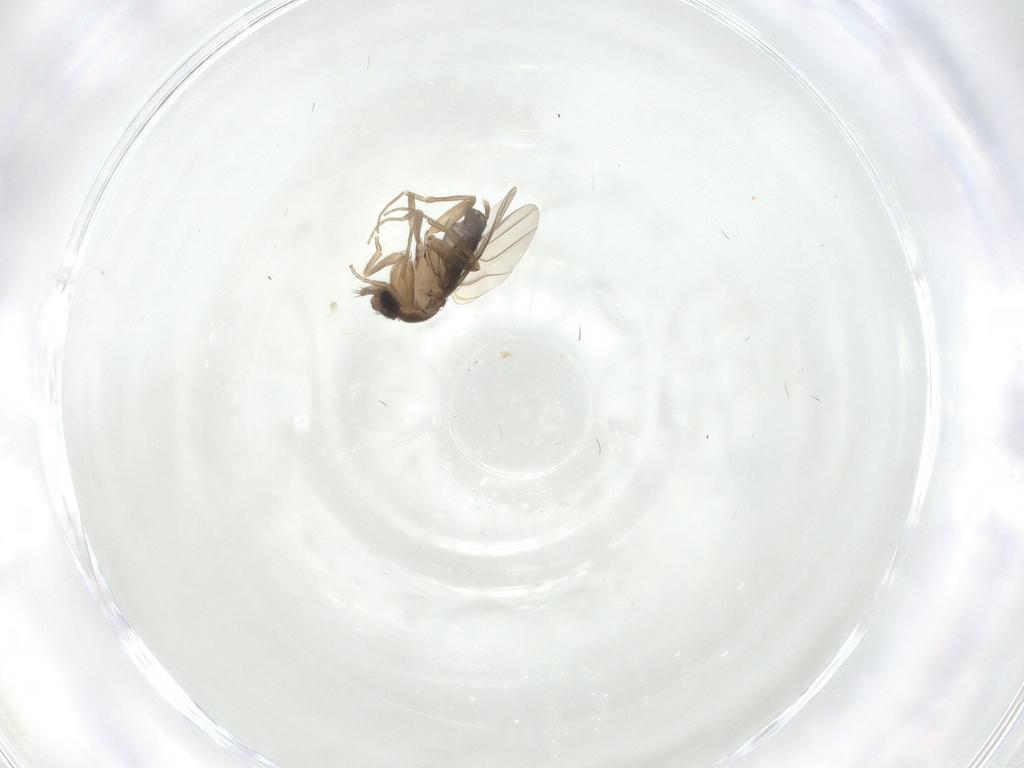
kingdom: Animalia
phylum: Arthropoda
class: Insecta
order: Diptera
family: Phoridae
